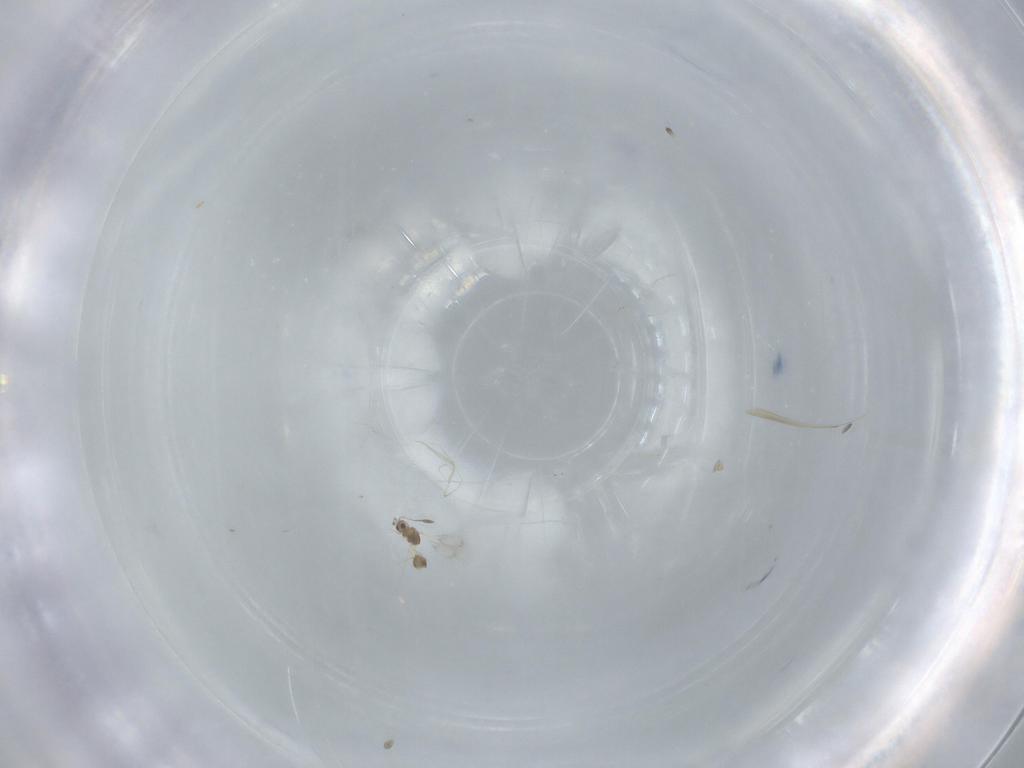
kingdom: Animalia
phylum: Arthropoda
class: Insecta
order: Hymenoptera
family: Mymarommatidae
